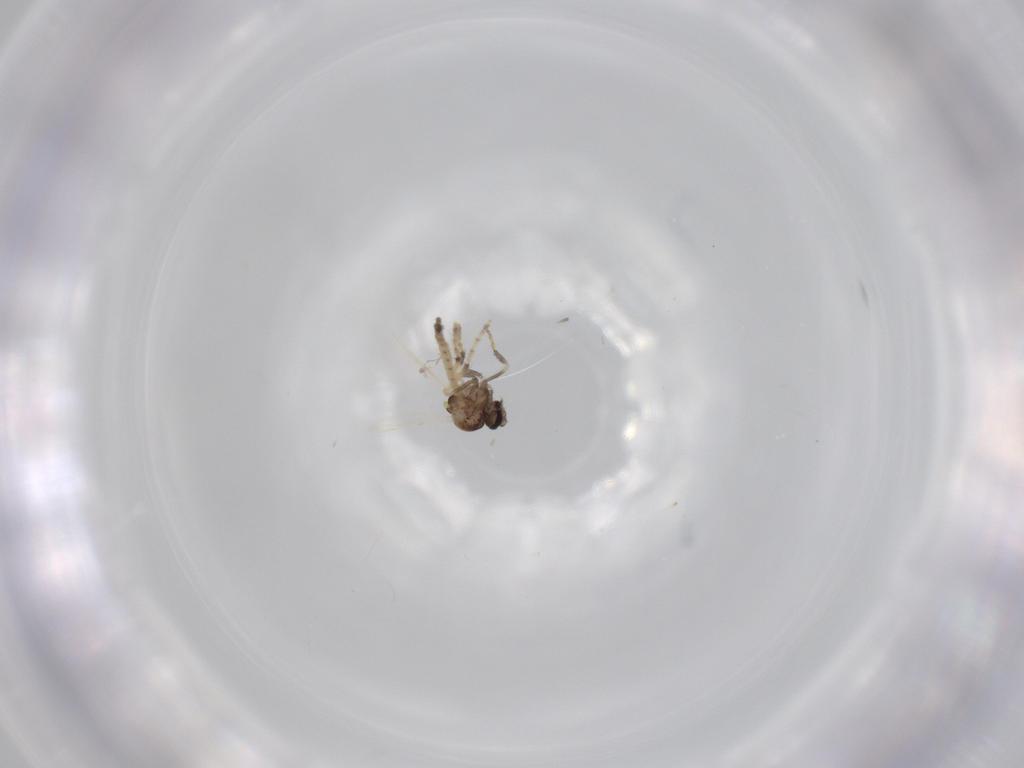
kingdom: Animalia
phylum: Arthropoda
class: Insecta
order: Diptera
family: Ceratopogonidae
